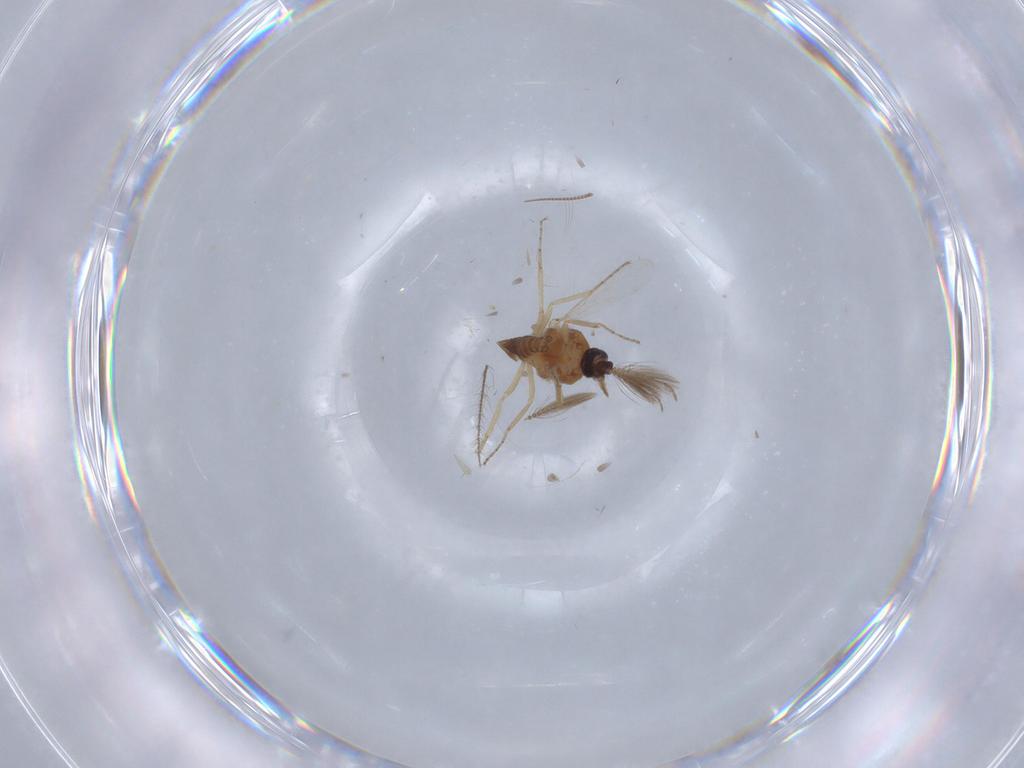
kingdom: Animalia
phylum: Arthropoda
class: Insecta
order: Diptera
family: Ceratopogonidae
